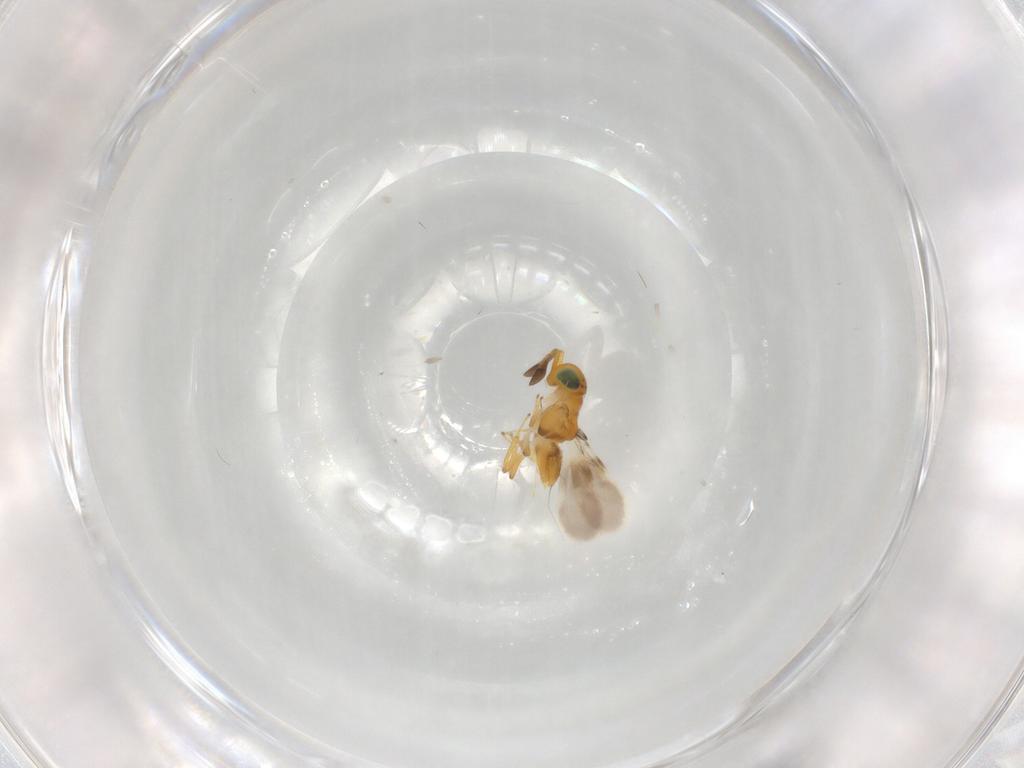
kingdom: Animalia
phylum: Arthropoda
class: Insecta
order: Hymenoptera
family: Encyrtidae
